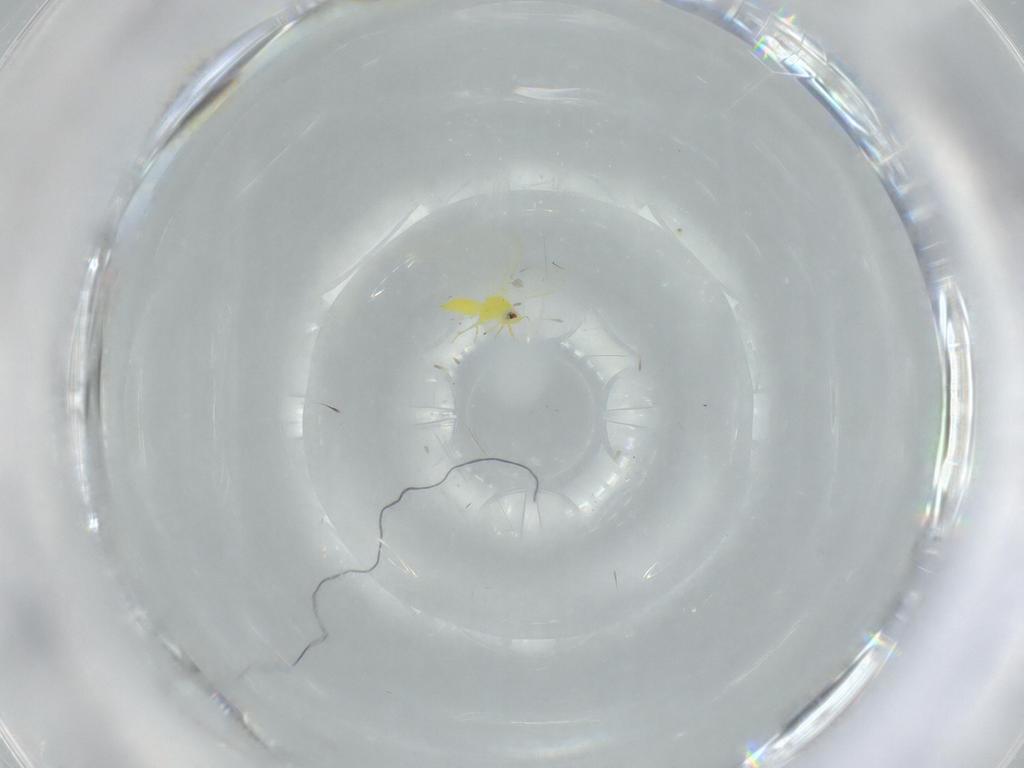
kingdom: Animalia
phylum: Arthropoda
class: Insecta
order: Hemiptera
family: Aleyrodidae
